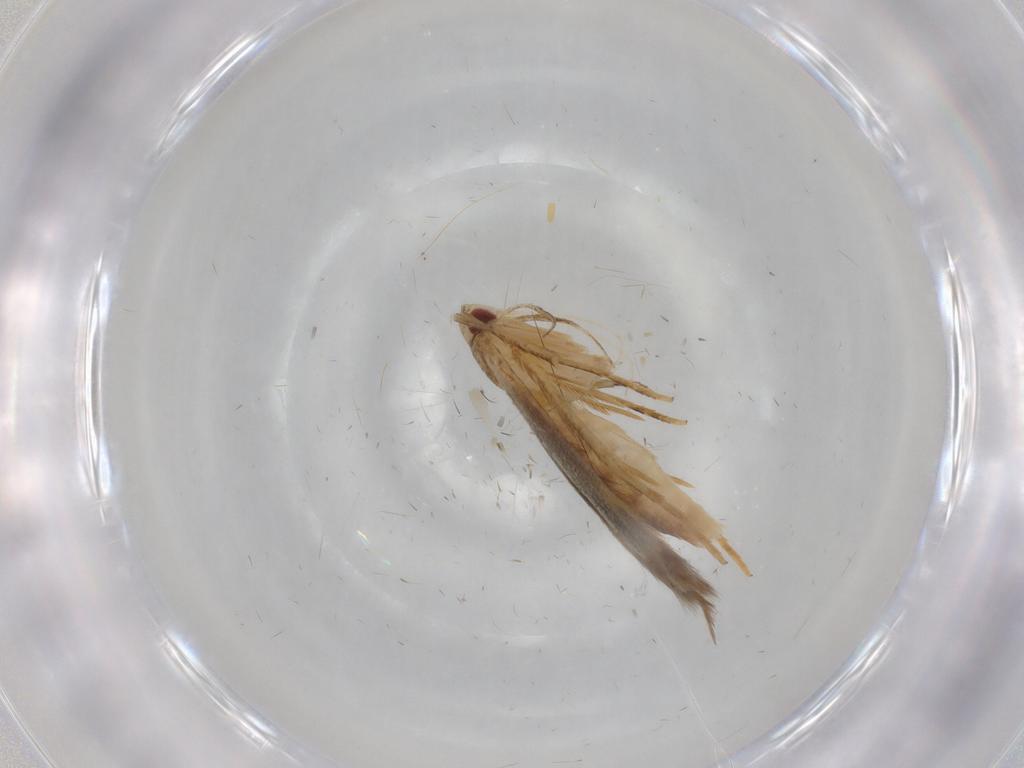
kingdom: Animalia
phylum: Arthropoda
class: Insecta
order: Lepidoptera
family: Gelechiidae
